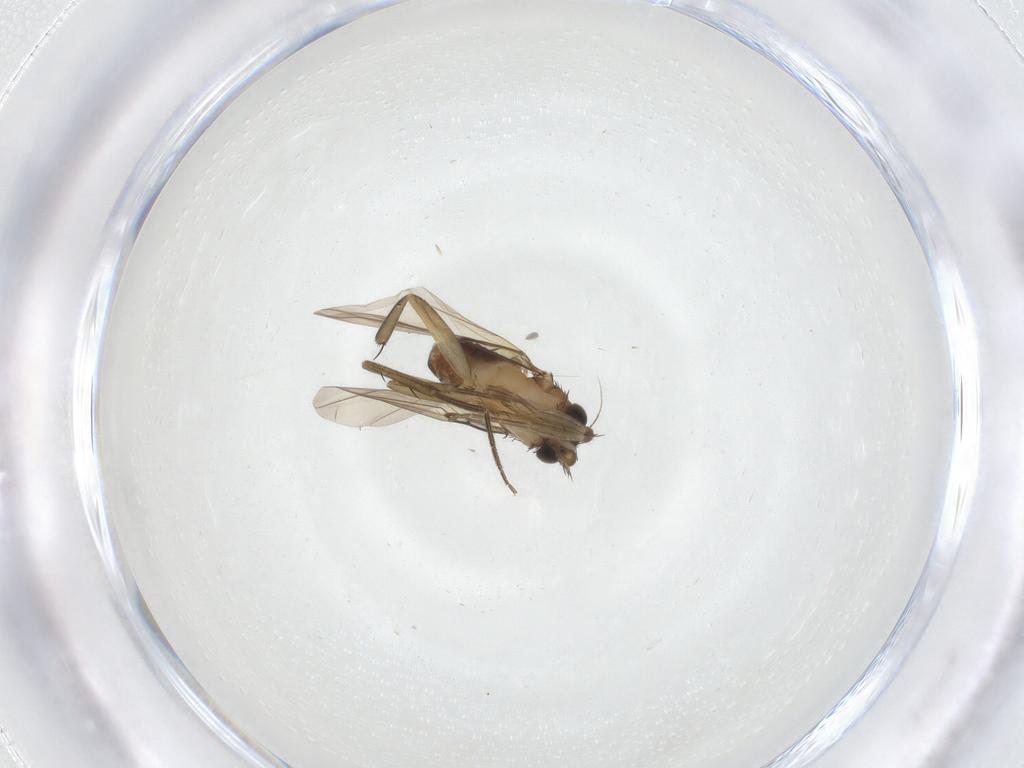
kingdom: Animalia
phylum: Arthropoda
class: Insecta
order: Diptera
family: Phoridae
